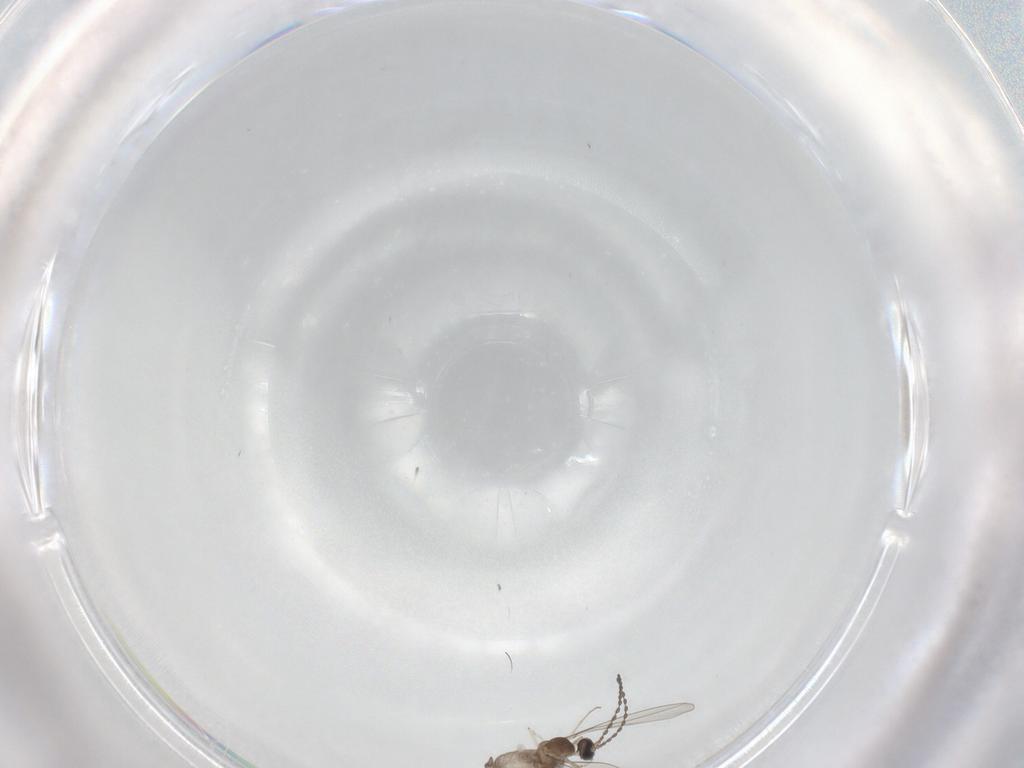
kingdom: Animalia
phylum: Arthropoda
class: Insecta
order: Diptera
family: Cecidomyiidae
